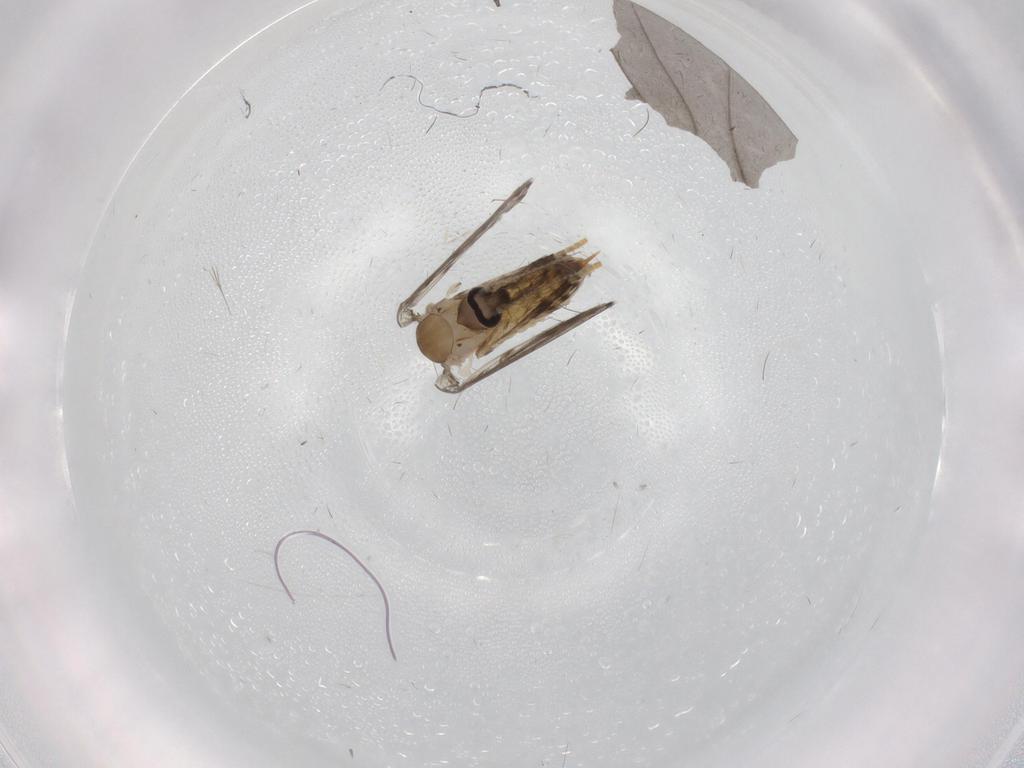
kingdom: Animalia
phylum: Arthropoda
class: Insecta
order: Diptera
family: Psychodidae
